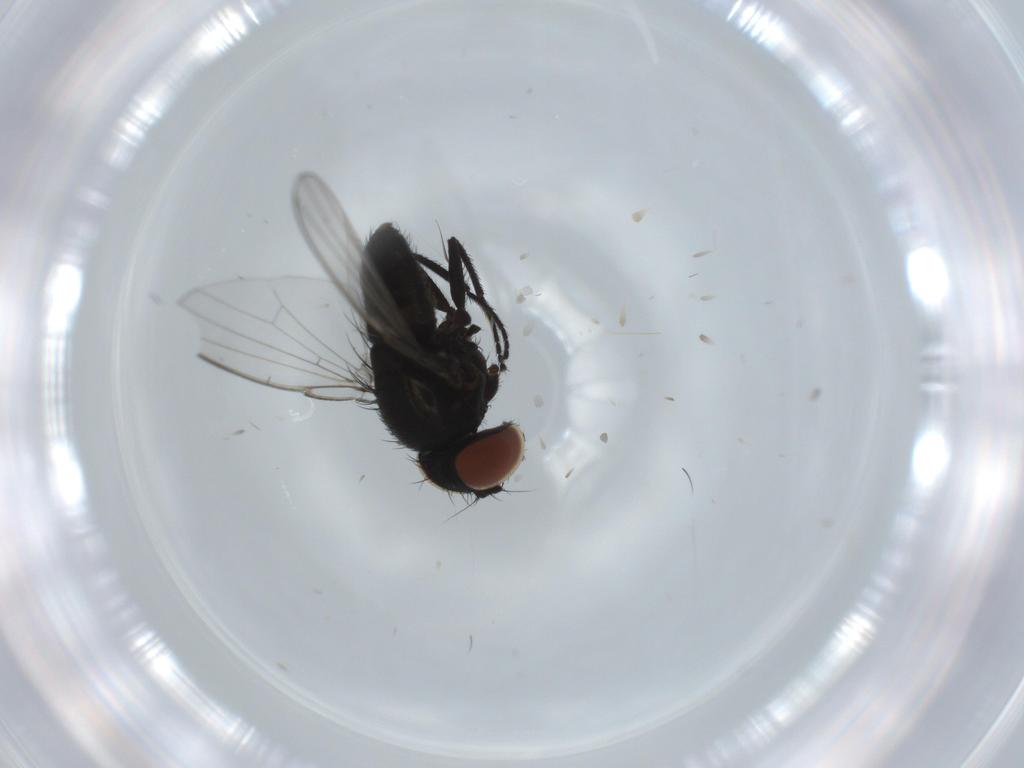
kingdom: Animalia
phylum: Arthropoda
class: Insecta
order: Diptera
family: Milichiidae
